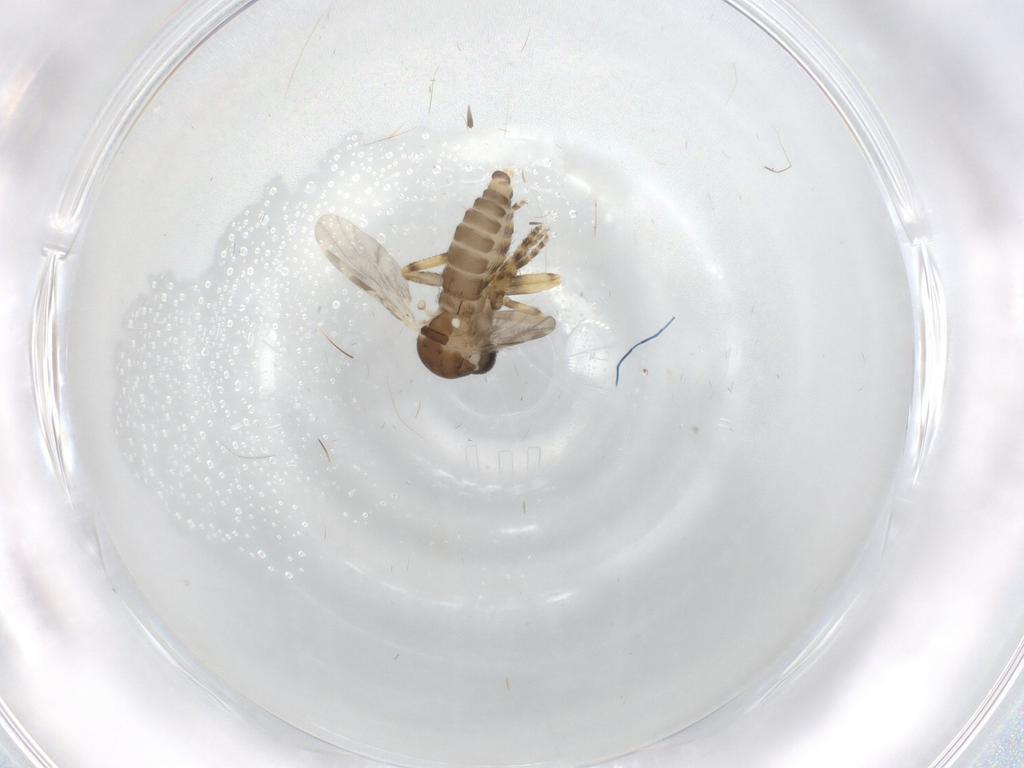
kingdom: Animalia
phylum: Arthropoda
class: Insecta
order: Diptera
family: Ceratopogonidae
